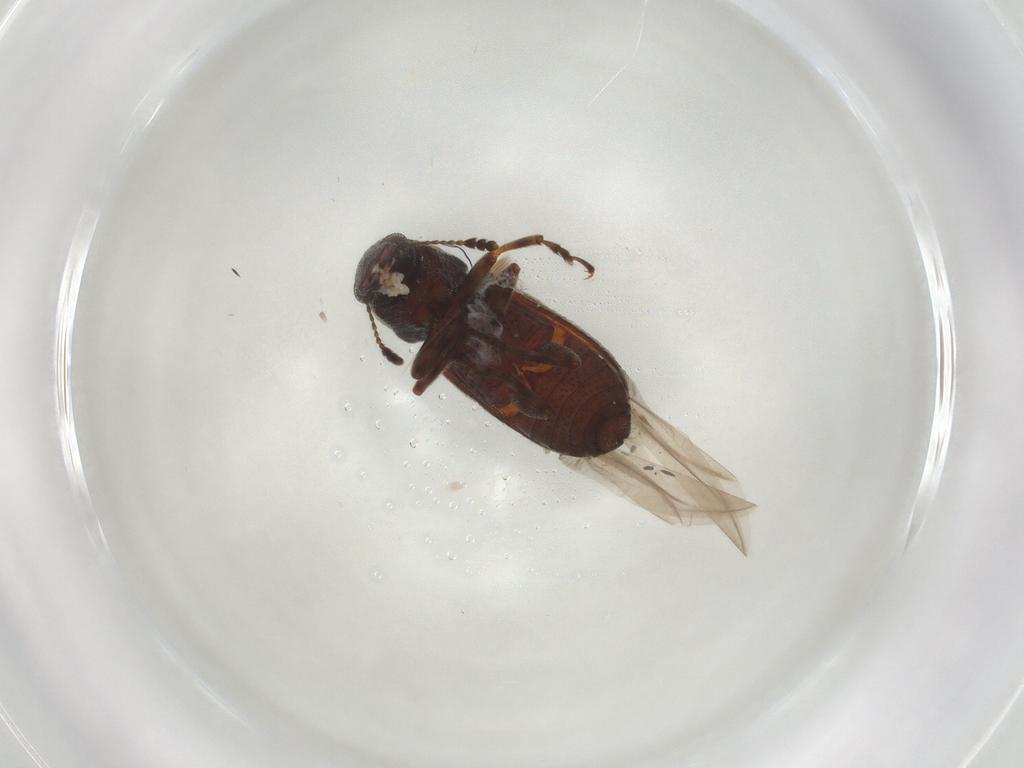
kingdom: Animalia
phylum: Arthropoda
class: Insecta
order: Coleoptera
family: Anthribidae
